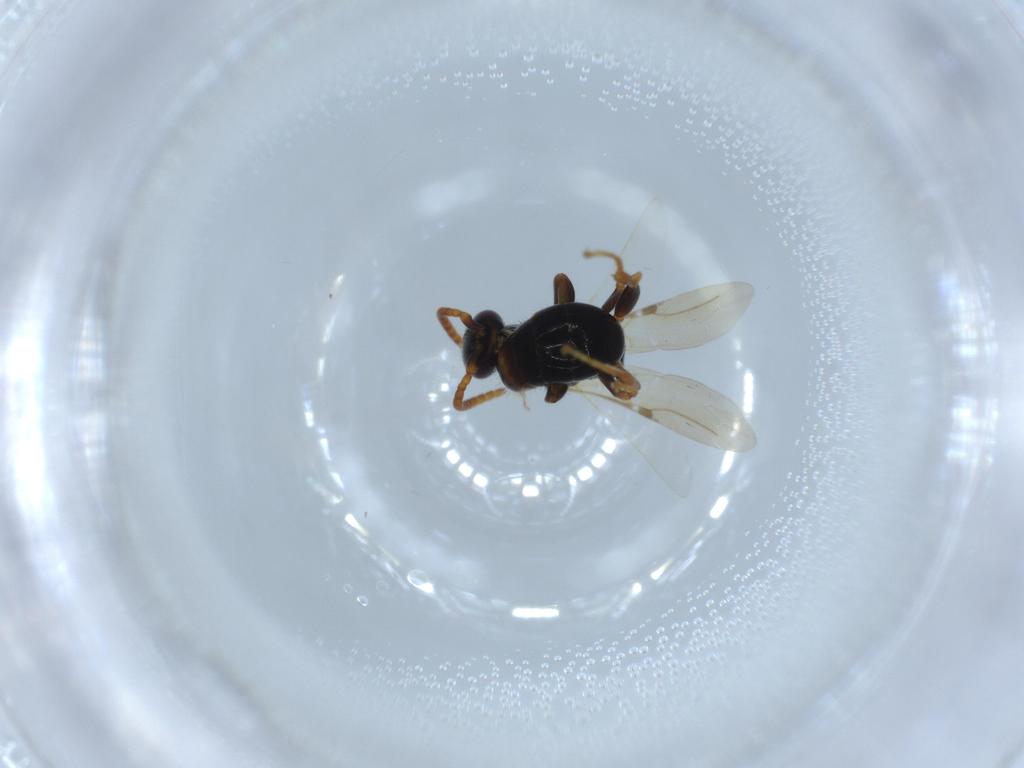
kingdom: Animalia
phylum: Arthropoda
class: Insecta
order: Hymenoptera
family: Bethylidae
